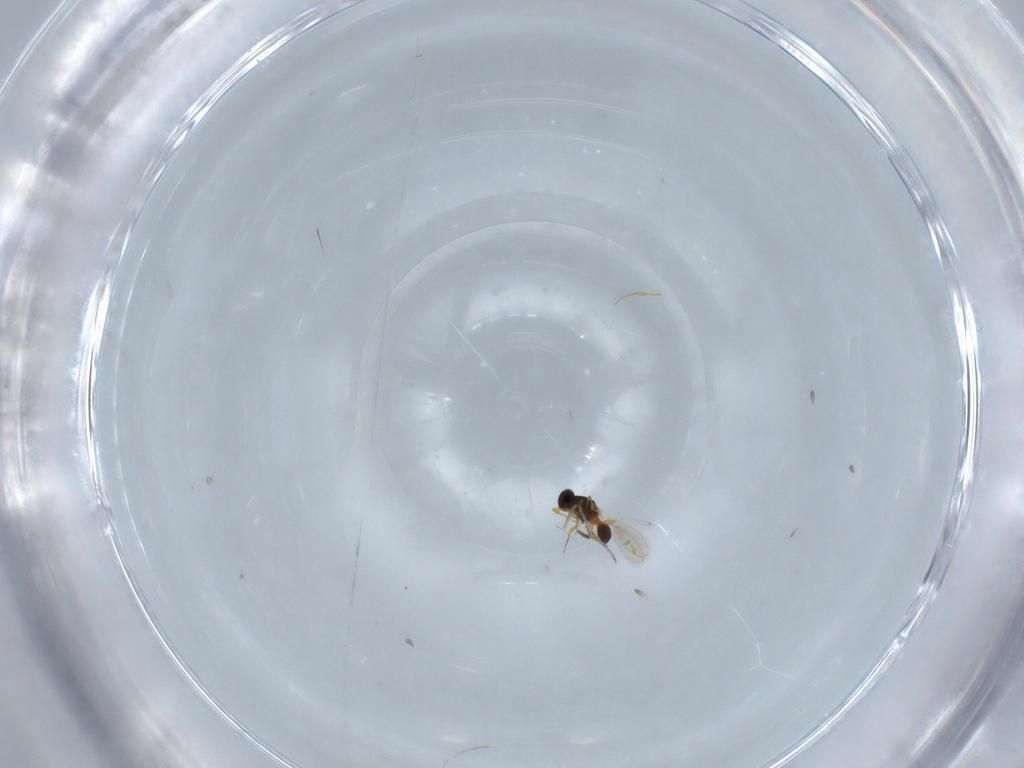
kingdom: Animalia
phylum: Arthropoda
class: Insecta
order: Hymenoptera
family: Platygastridae
